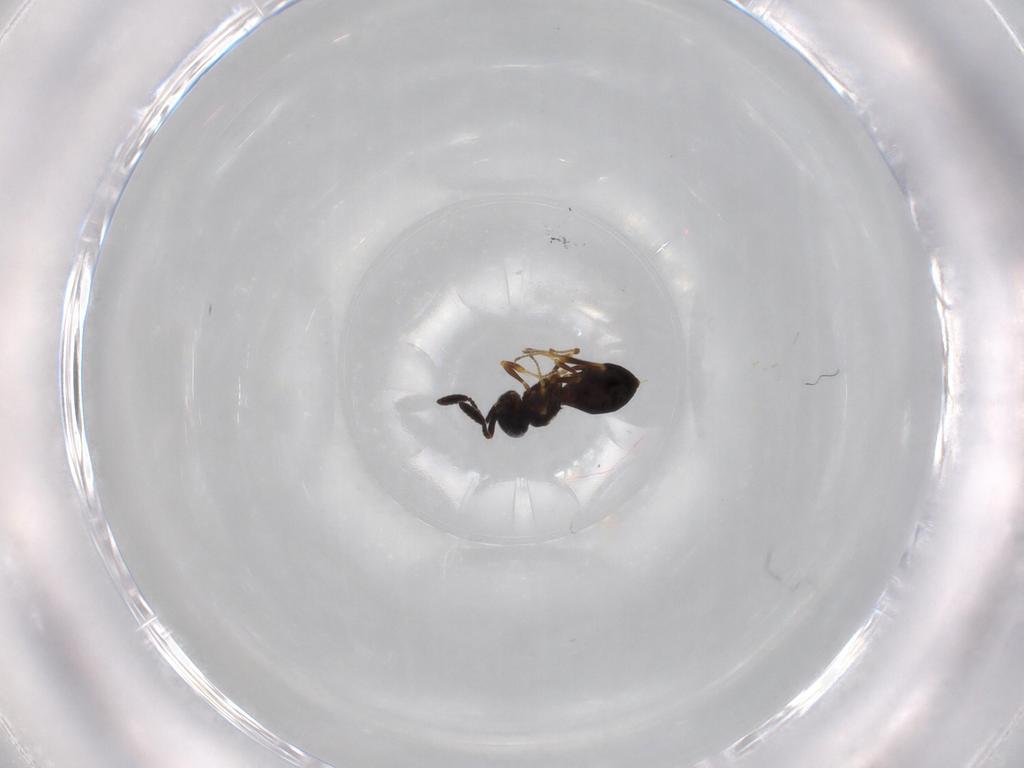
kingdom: Animalia
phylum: Arthropoda
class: Insecta
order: Hymenoptera
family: Scelionidae
